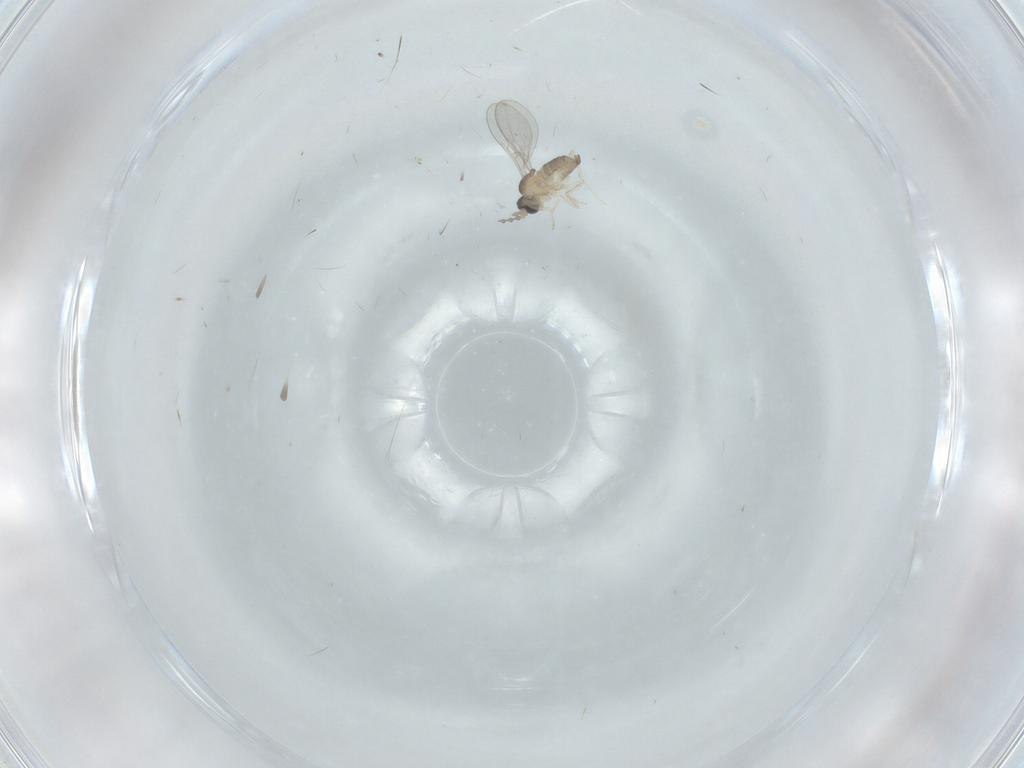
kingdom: Animalia
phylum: Arthropoda
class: Insecta
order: Diptera
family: Cecidomyiidae
